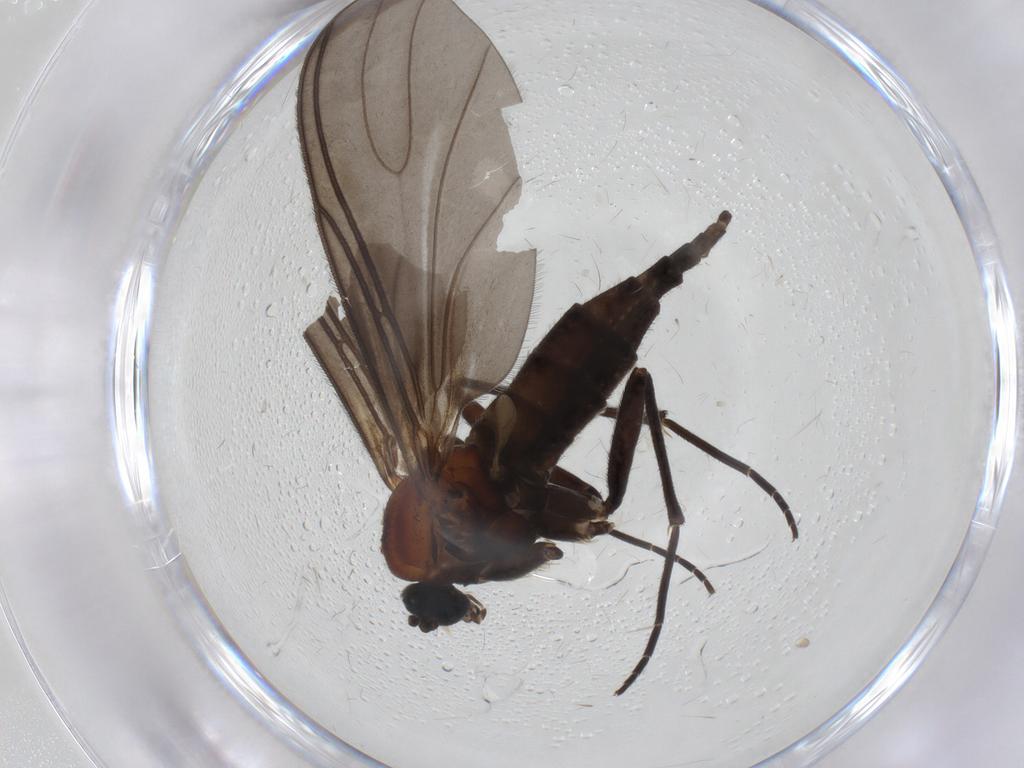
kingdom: Animalia
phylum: Arthropoda
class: Insecta
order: Diptera
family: Sciaridae
